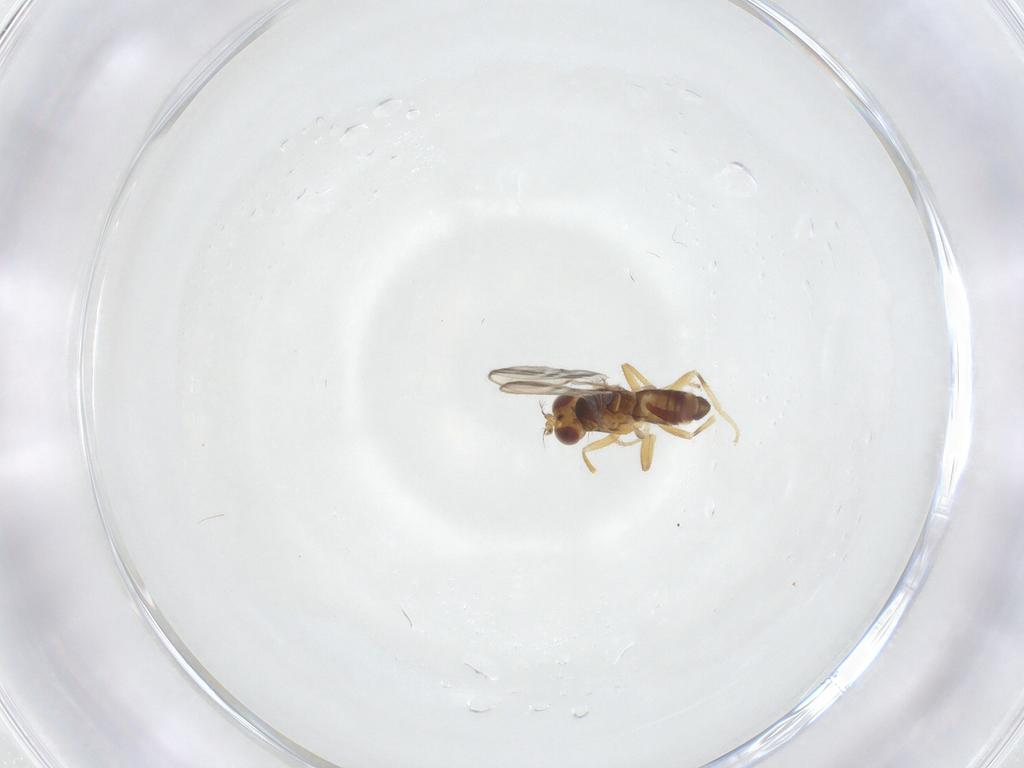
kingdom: Animalia
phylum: Arthropoda
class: Insecta
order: Diptera
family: Periscelididae
